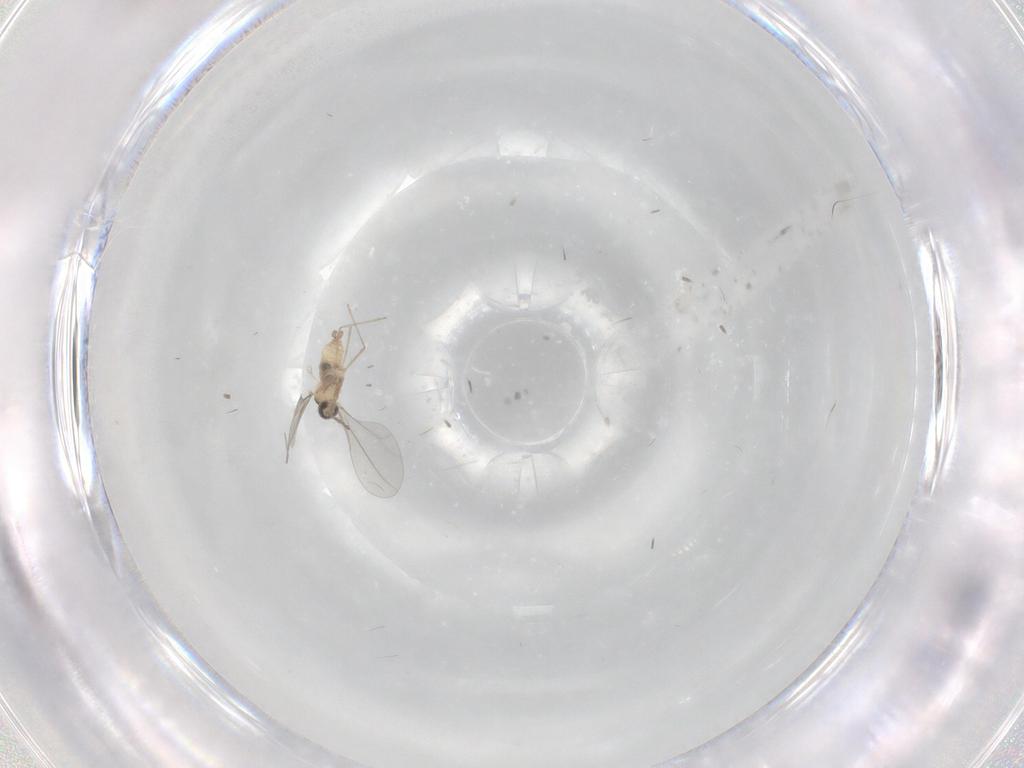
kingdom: Animalia
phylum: Arthropoda
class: Insecta
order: Diptera
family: Cecidomyiidae
